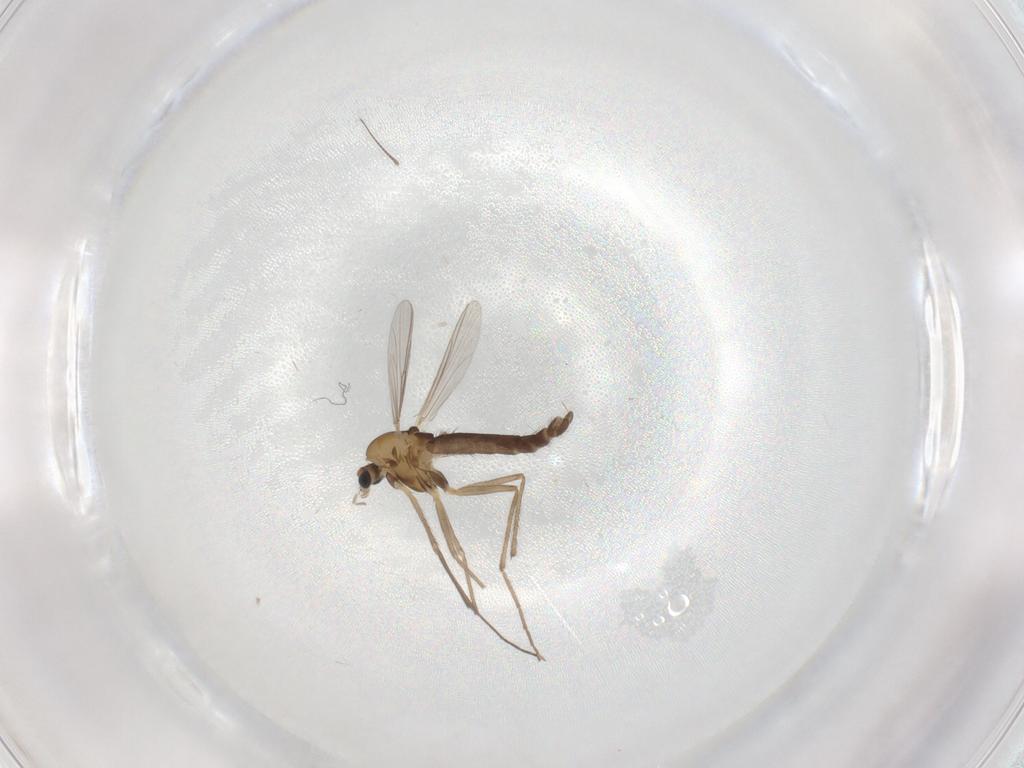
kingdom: Animalia
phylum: Arthropoda
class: Insecta
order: Diptera
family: Chironomidae
